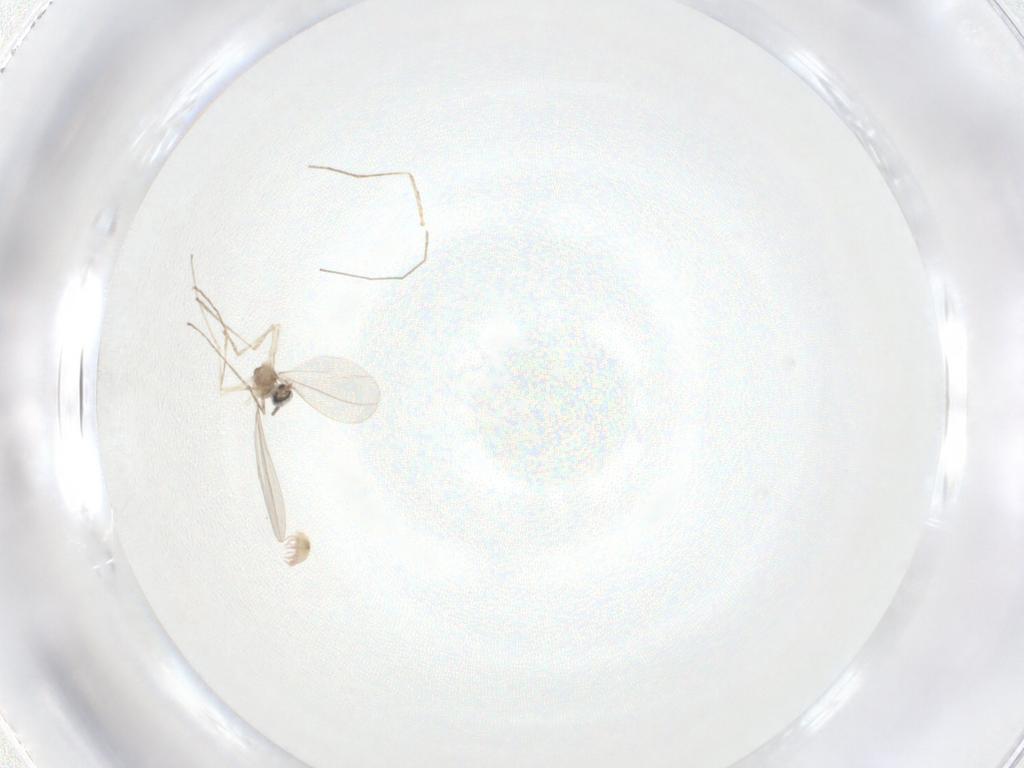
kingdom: Animalia
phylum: Arthropoda
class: Insecta
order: Diptera
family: Cecidomyiidae
